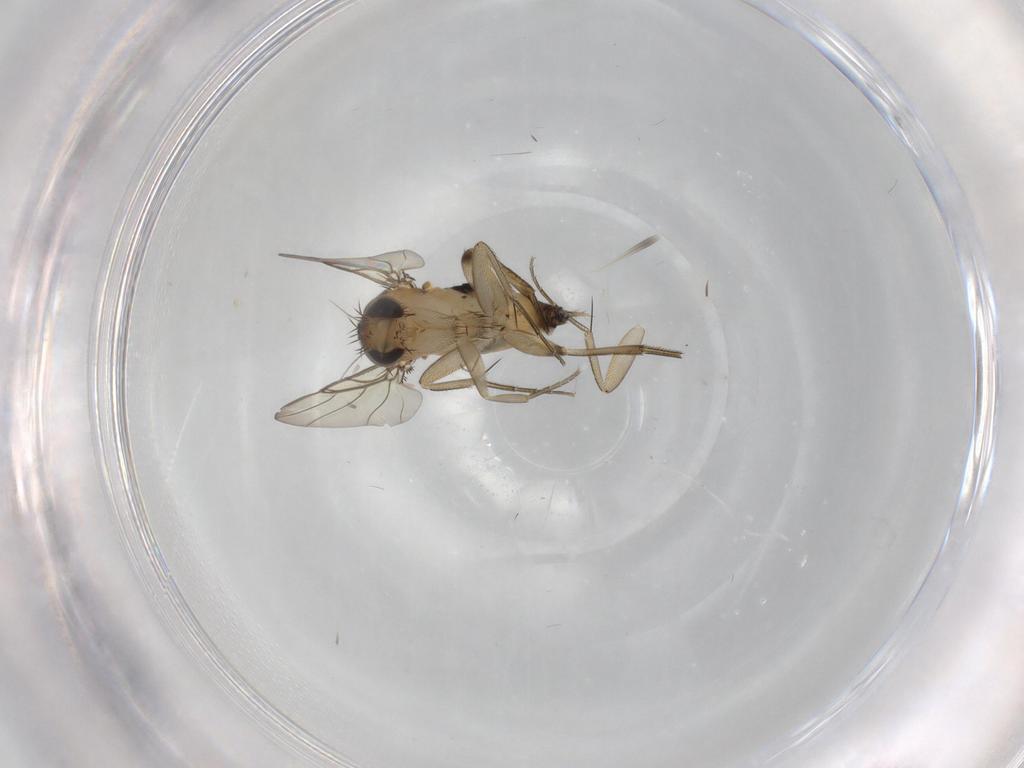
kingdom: Animalia
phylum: Arthropoda
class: Insecta
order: Diptera
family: Phoridae
